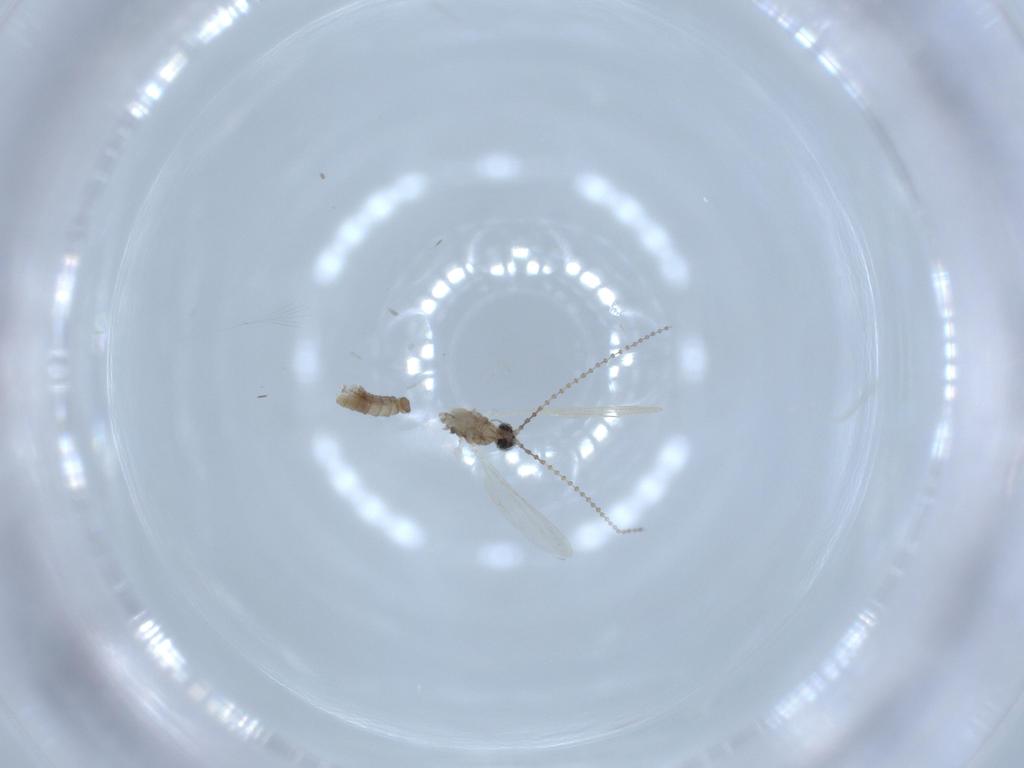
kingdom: Animalia
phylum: Arthropoda
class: Insecta
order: Diptera
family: Cecidomyiidae
